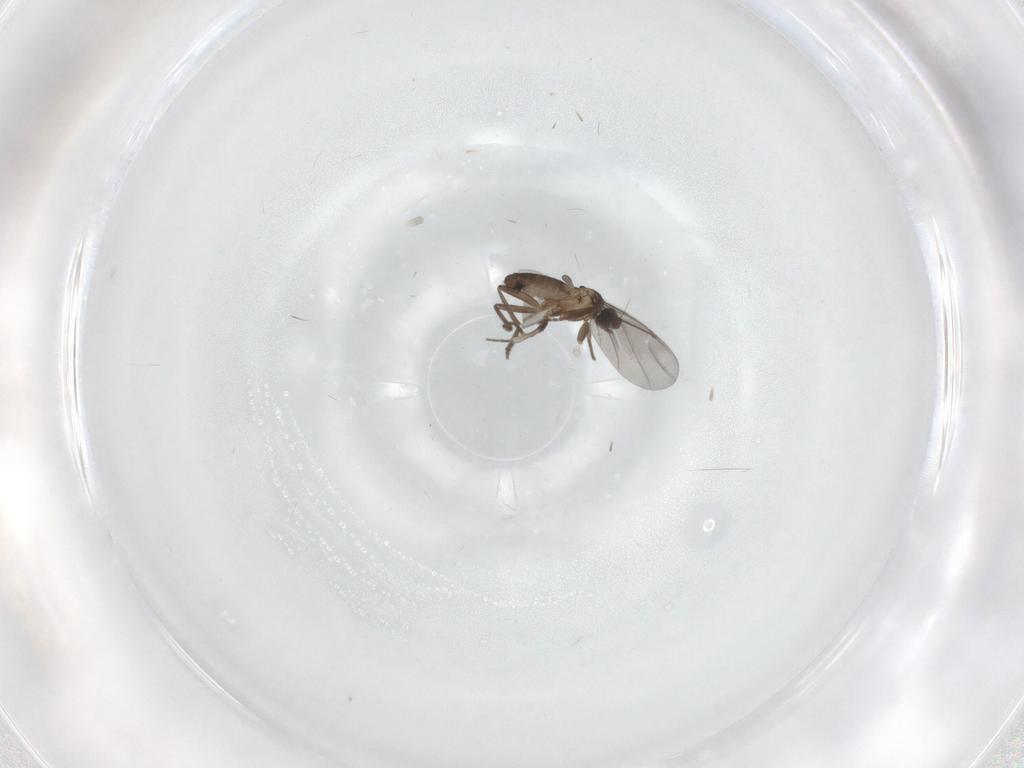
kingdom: Animalia
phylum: Arthropoda
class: Insecta
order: Diptera
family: Phoridae
